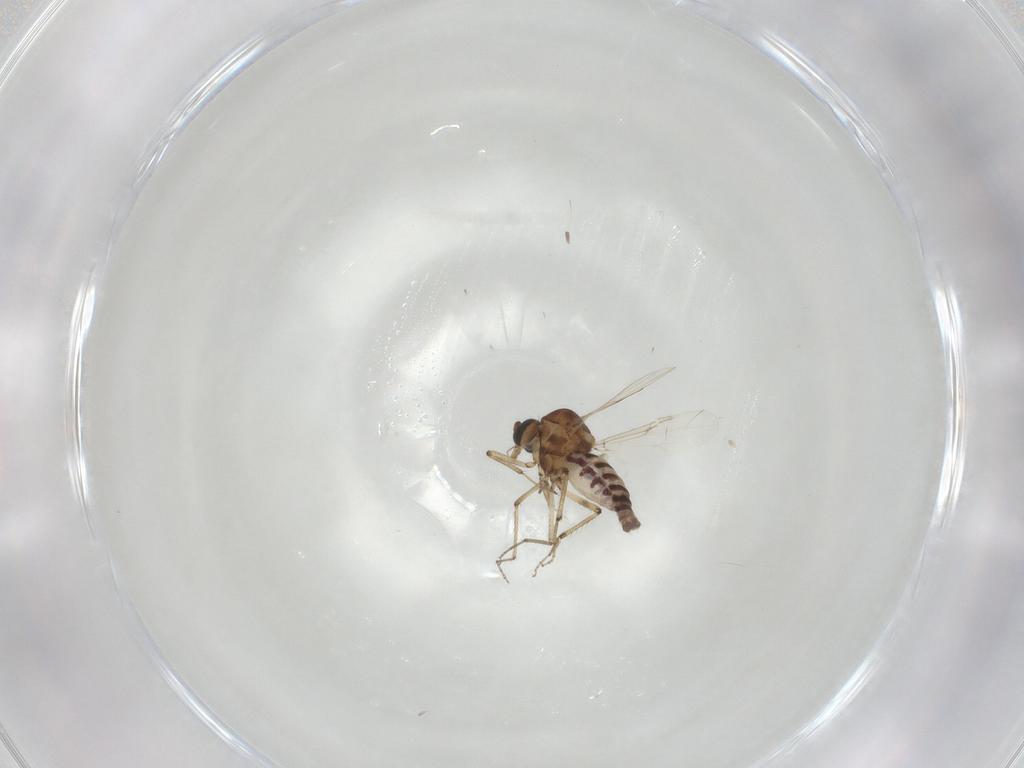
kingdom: Animalia
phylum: Arthropoda
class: Insecta
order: Diptera
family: Ceratopogonidae
